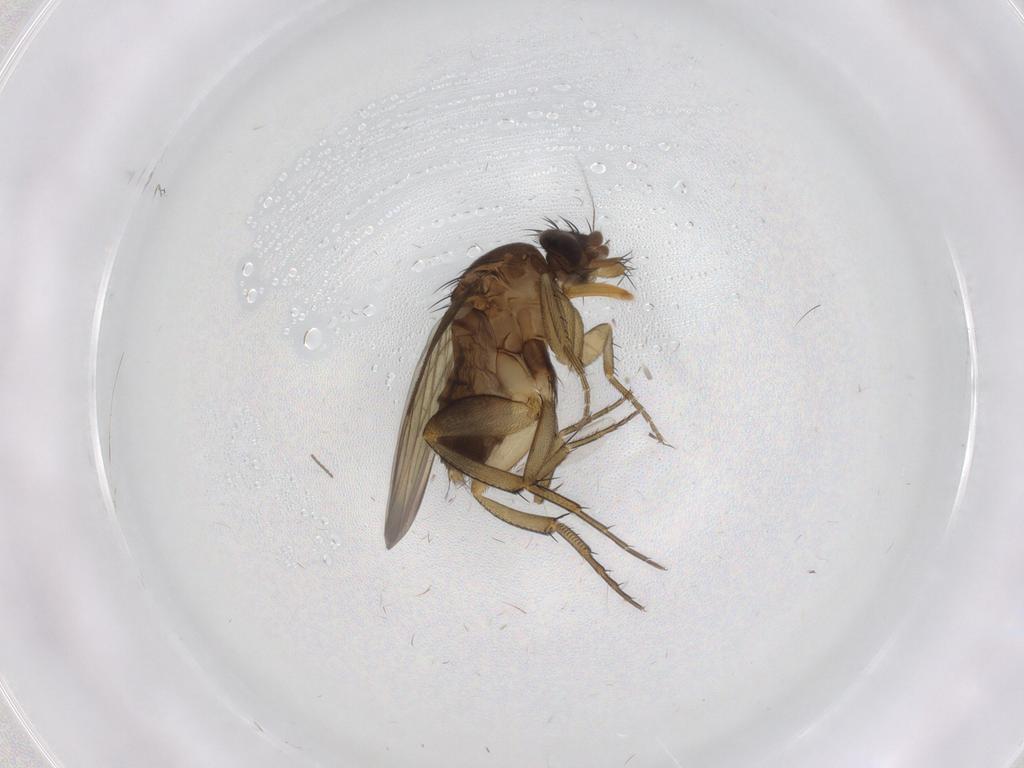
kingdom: Animalia
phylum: Arthropoda
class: Insecta
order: Diptera
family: Phoridae
